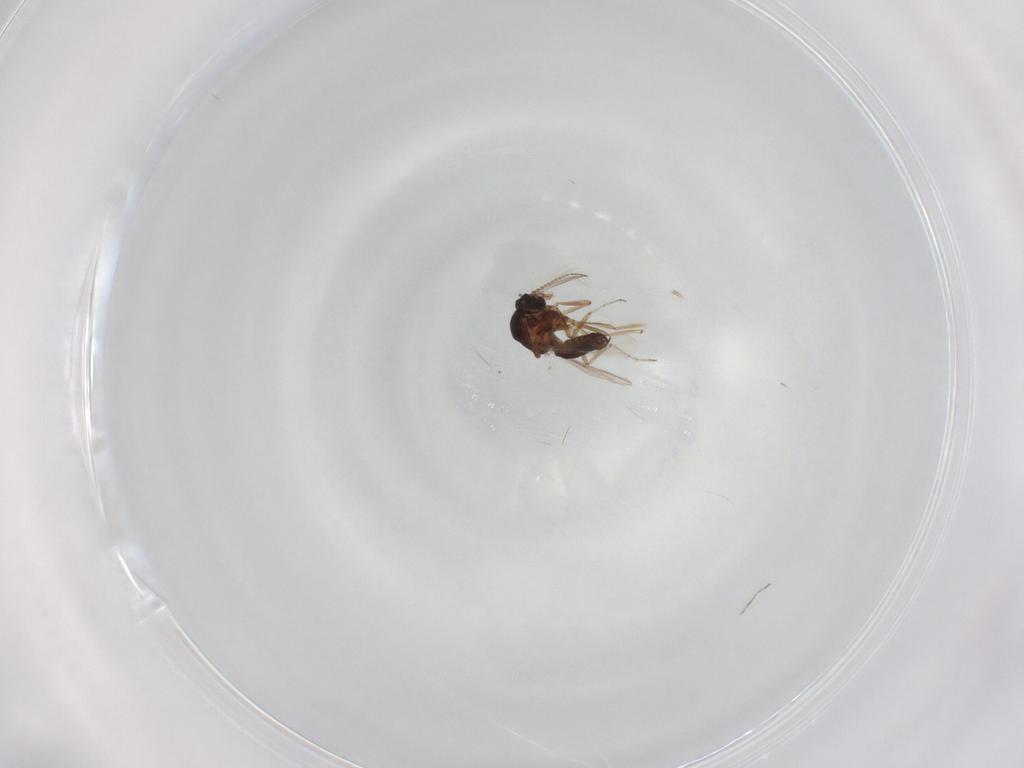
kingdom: Animalia
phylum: Arthropoda
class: Insecta
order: Diptera
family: Ceratopogonidae
